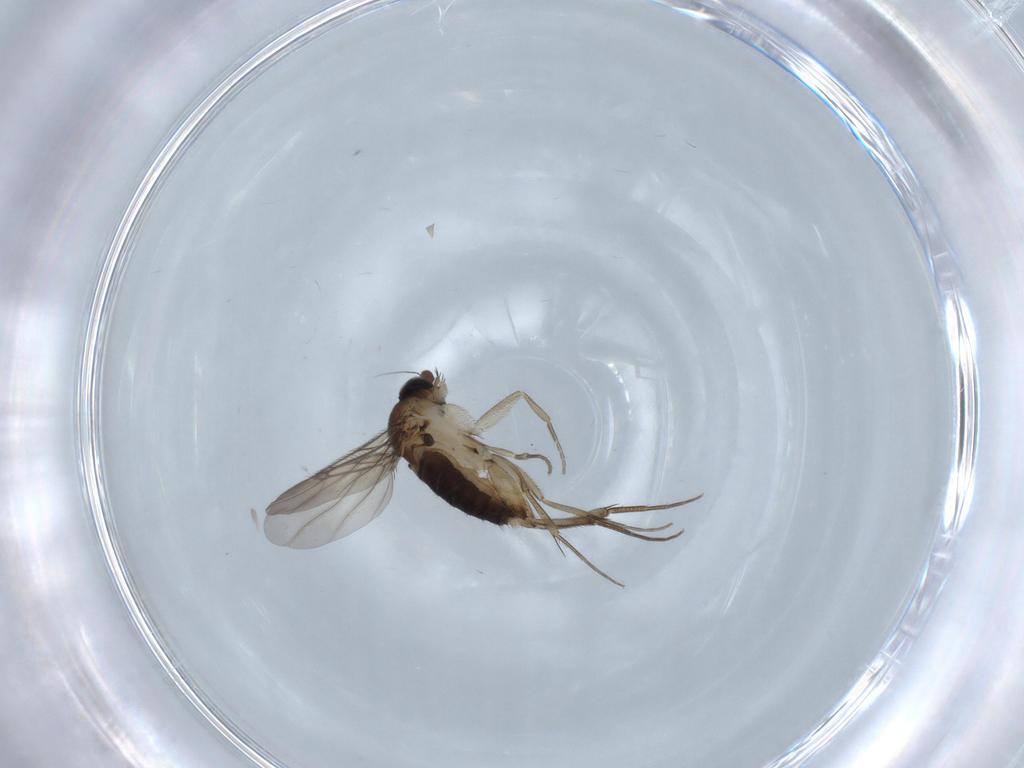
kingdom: Animalia
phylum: Arthropoda
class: Insecta
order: Diptera
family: Phoridae
